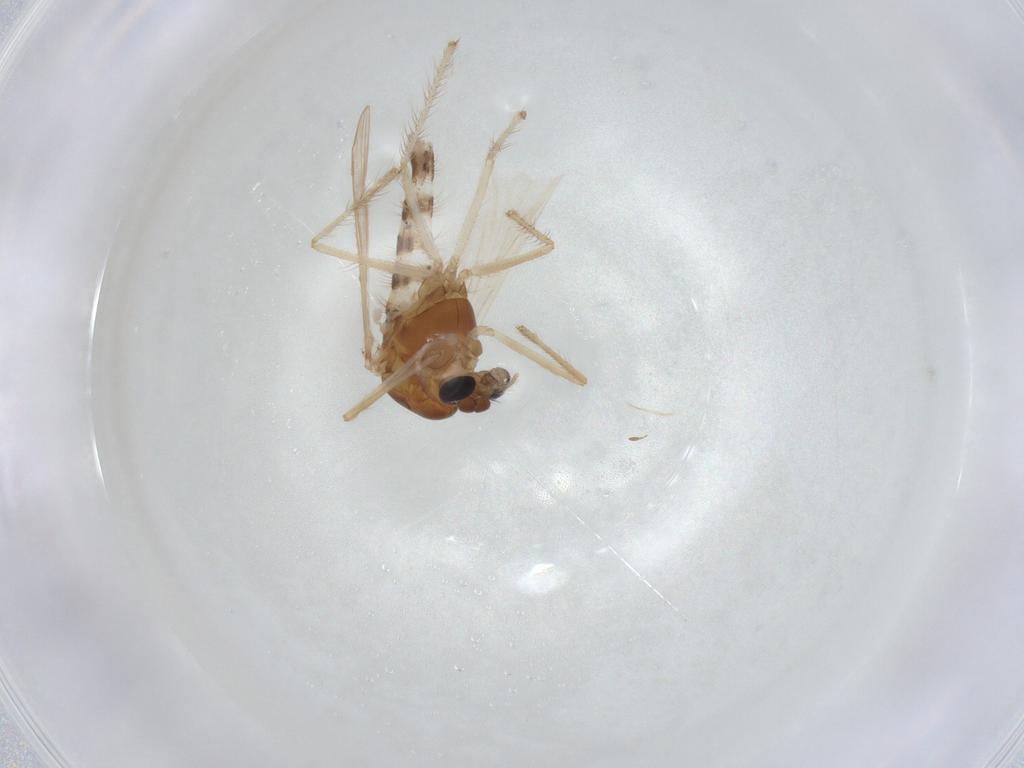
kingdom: Animalia
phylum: Arthropoda
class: Insecta
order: Diptera
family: Chironomidae
